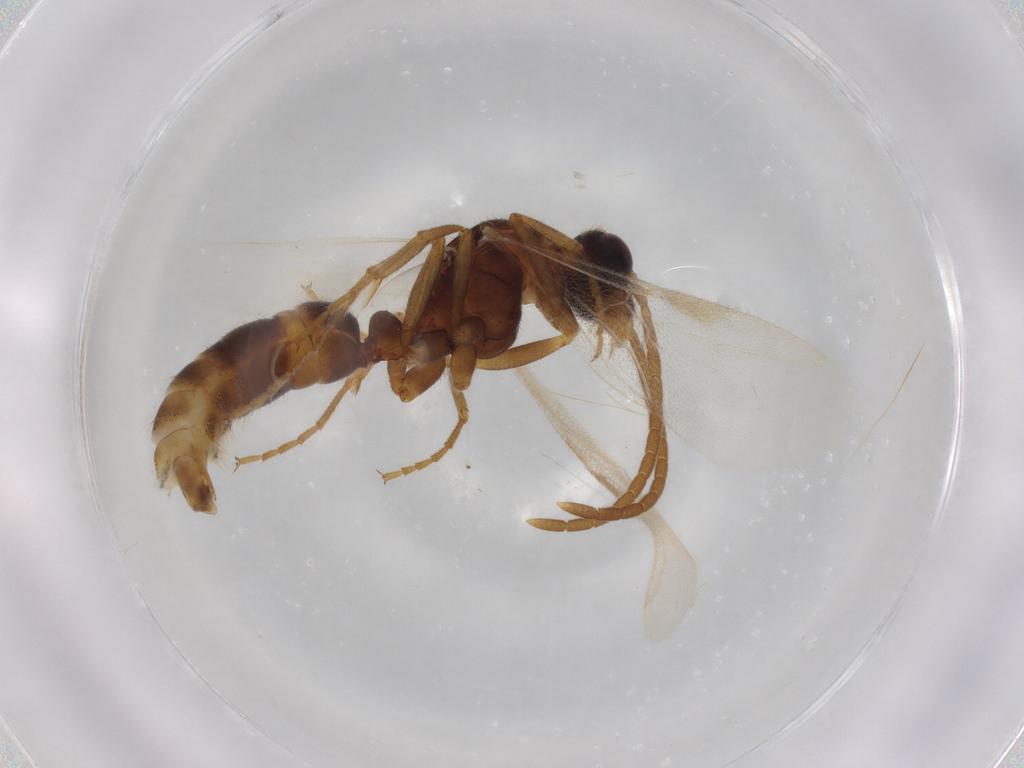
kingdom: Animalia
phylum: Arthropoda
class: Insecta
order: Hymenoptera
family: Formicidae
